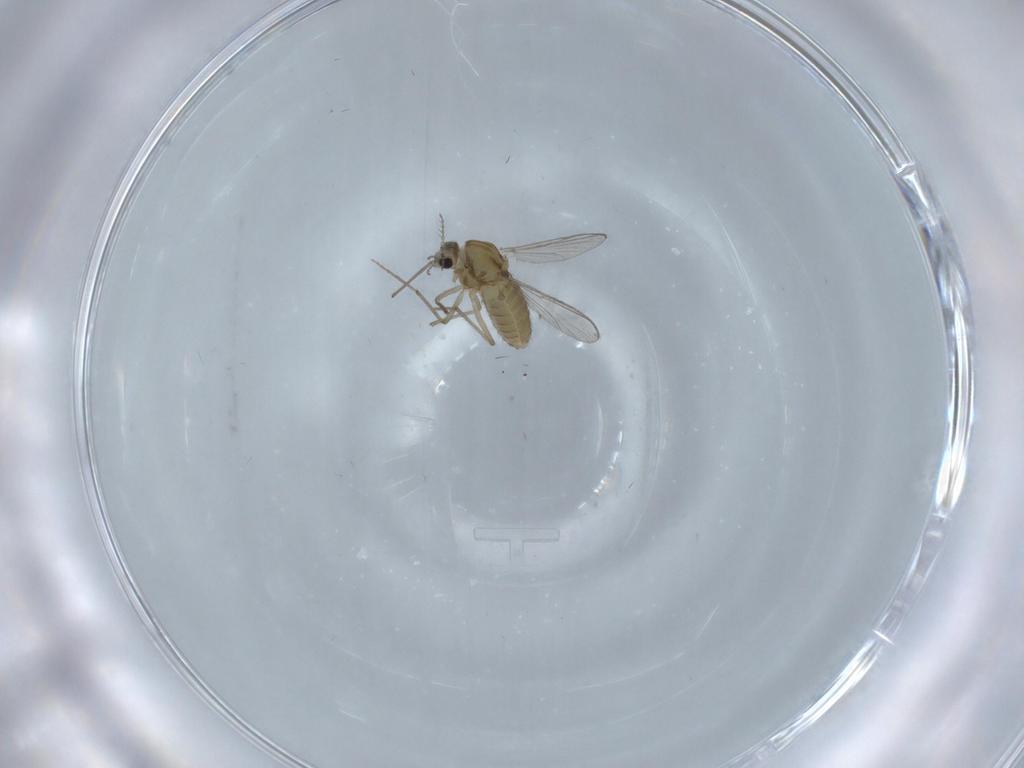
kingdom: Animalia
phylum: Arthropoda
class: Insecta
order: Diptera
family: Chironomidae
